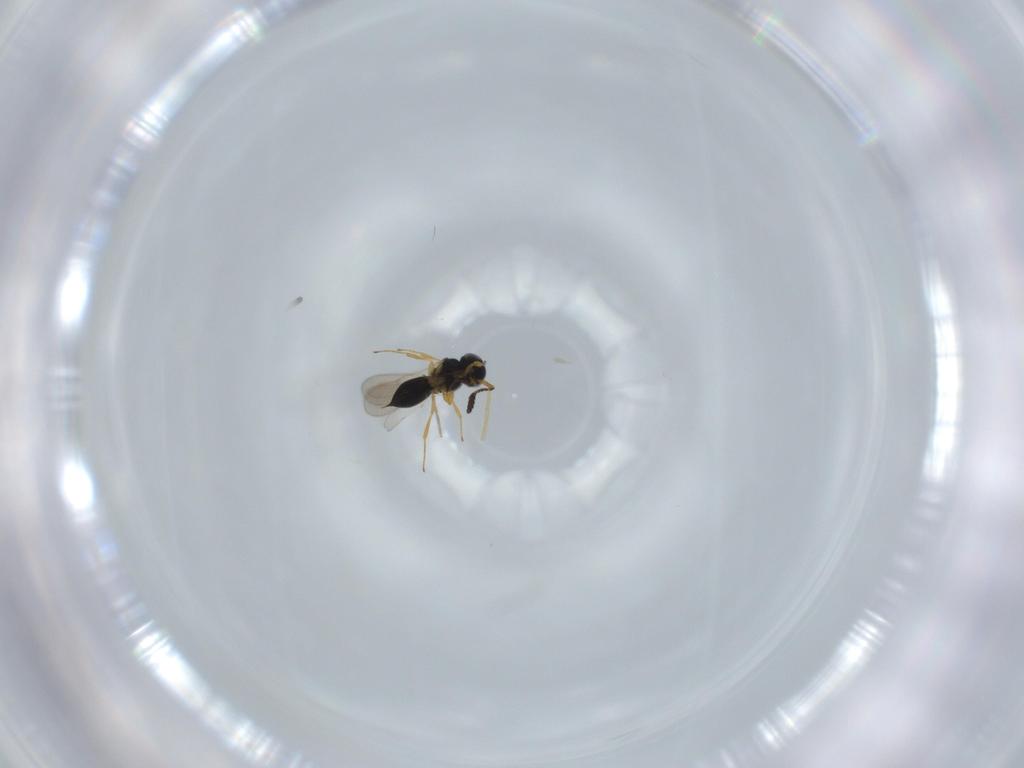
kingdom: Animalia
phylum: Arthropoda
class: Insecta
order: Hymenoptera
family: Scelionidae
